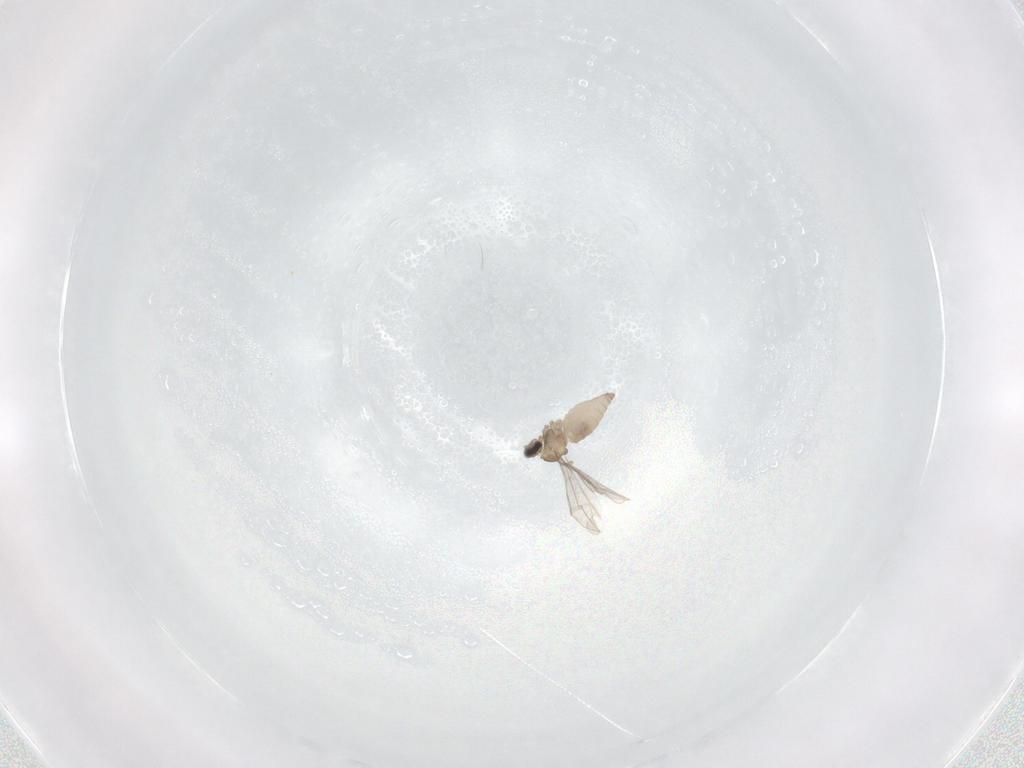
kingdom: Animalia
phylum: Arthropoda
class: Insecta
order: Diptera
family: Cecidomyiidae
